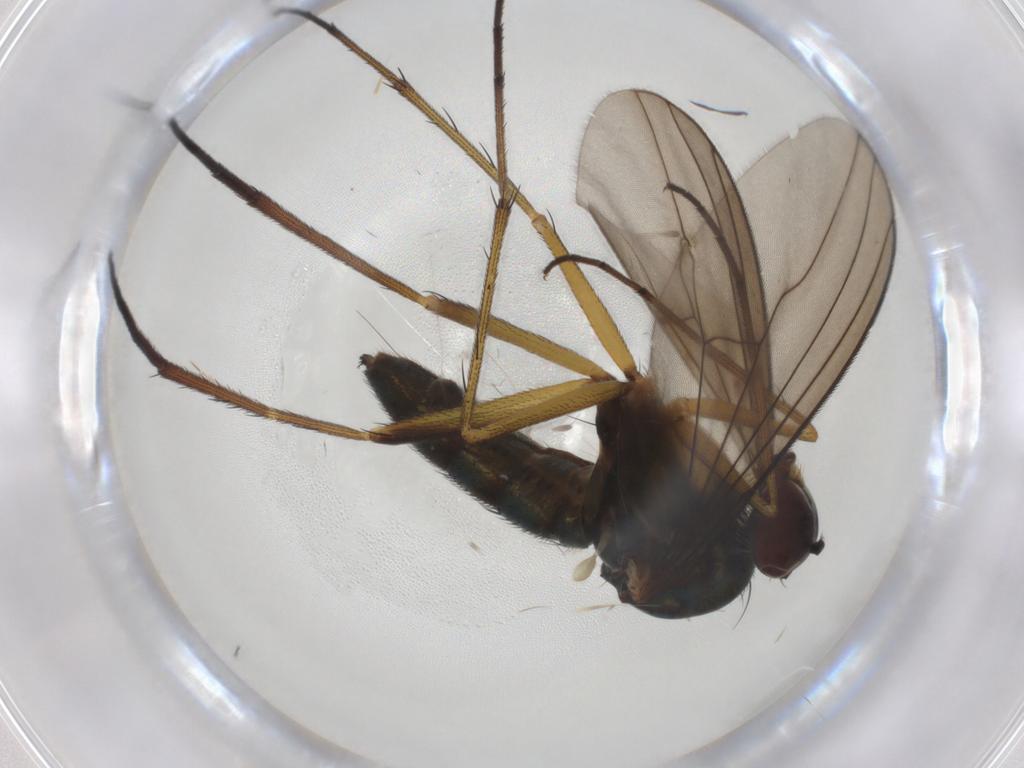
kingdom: Animalia
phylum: Arthropoda
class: Insecta
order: Diptera
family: Dolichopodidae
